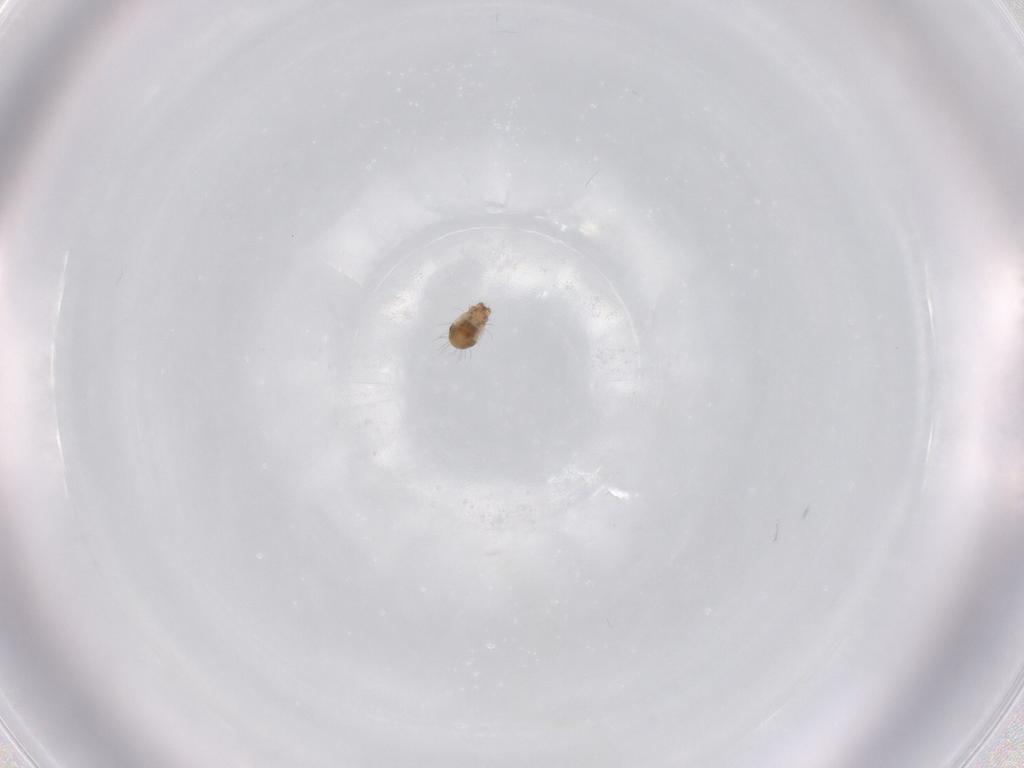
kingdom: Animalia
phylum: Arthropoda
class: Arachnida
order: Sarcoptiformes
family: Humerobatidae
